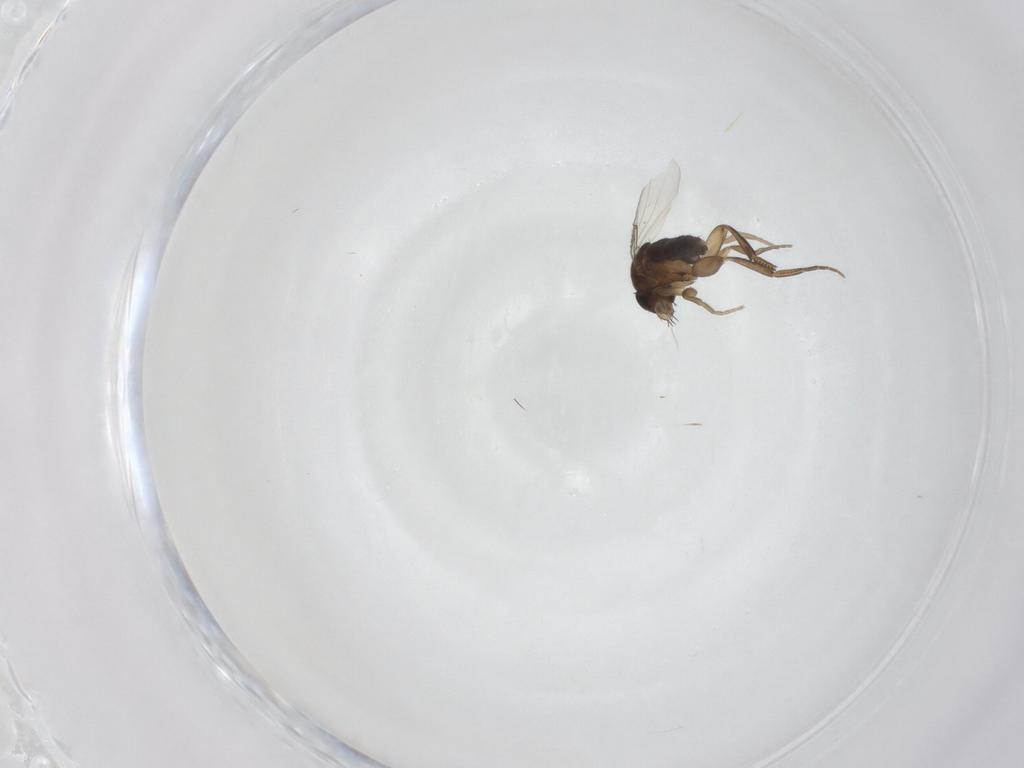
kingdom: Animalia
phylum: Arthropoda
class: Insecta
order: Diptera
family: Phoridae
